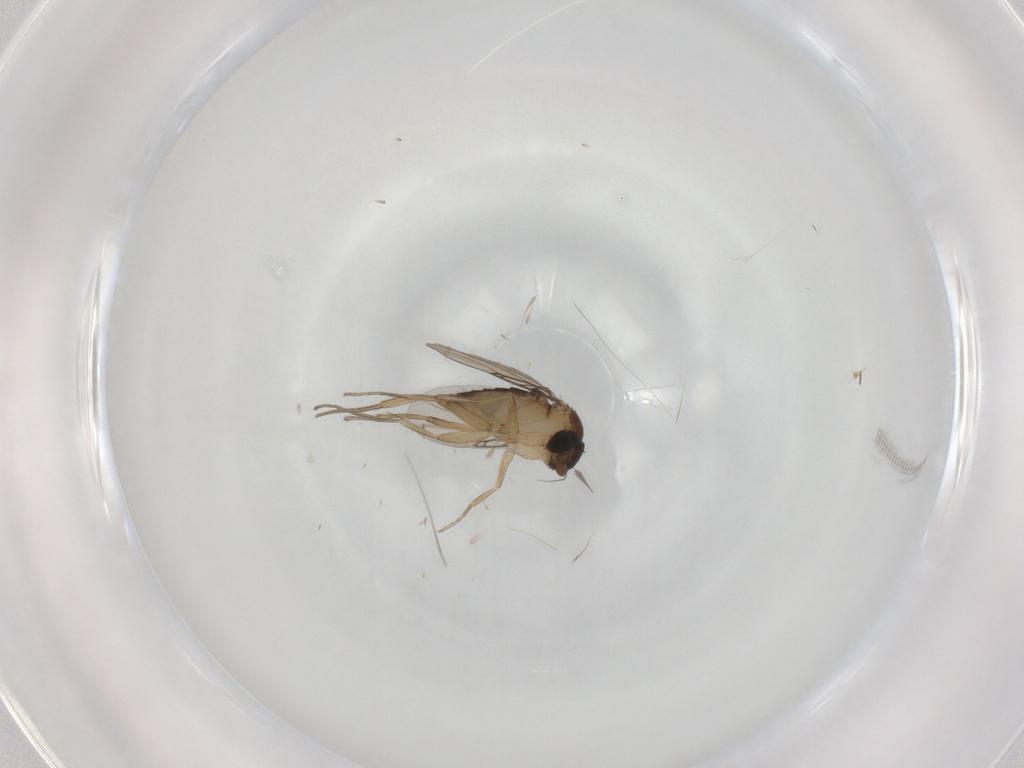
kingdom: Animalia
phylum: Arthropoda
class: Insecta
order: Diptera
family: Phoridae
